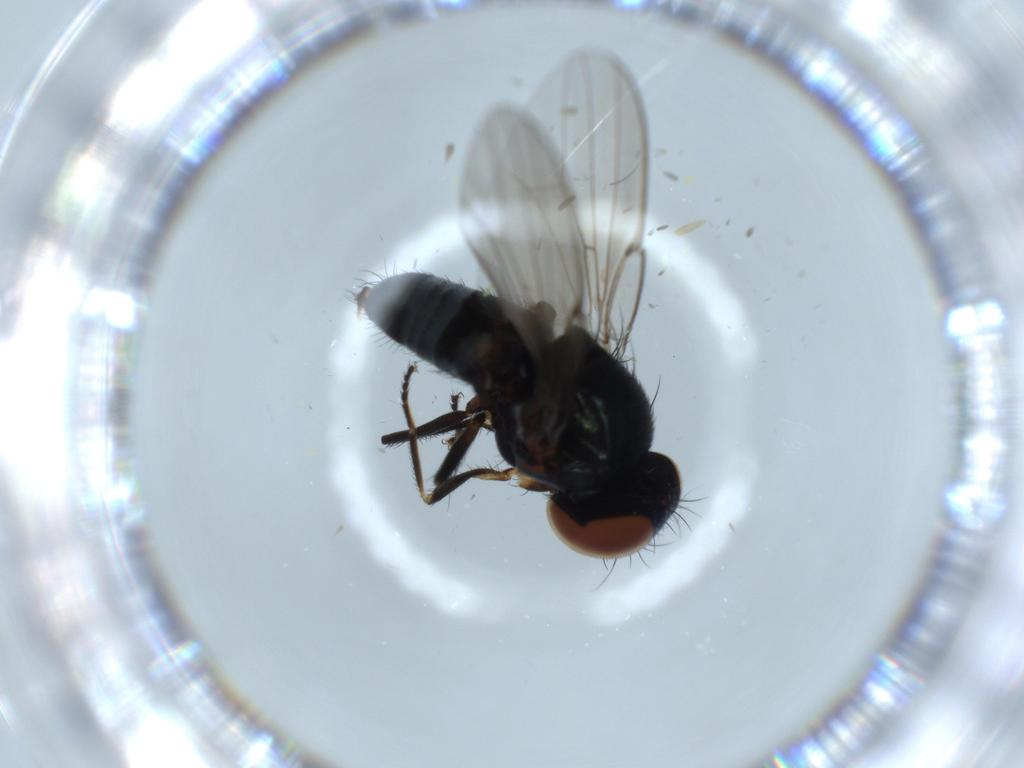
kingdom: Animalia
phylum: Arthropoda
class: Insecta
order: Diptera
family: Milichiidae
